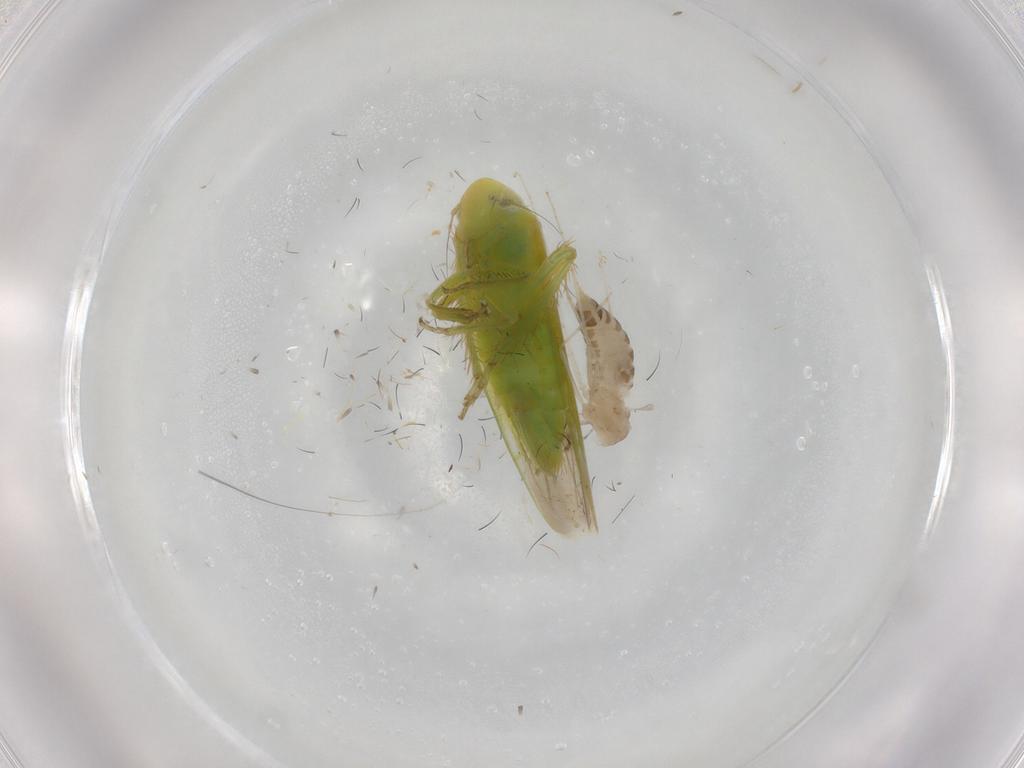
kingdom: Animalia
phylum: Arthropoda
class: Insecta
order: Diptera
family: Cecidomyiidae
